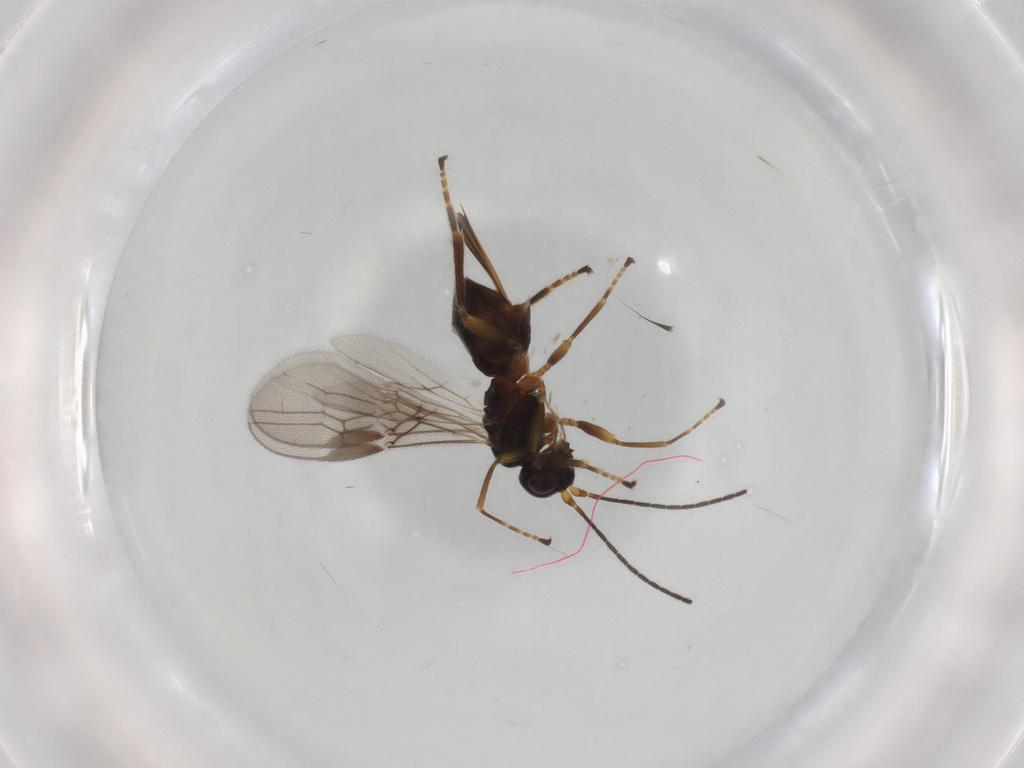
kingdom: Animalia
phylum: Arthropoda
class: Insecta
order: Hymenoptera
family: Braconidae
